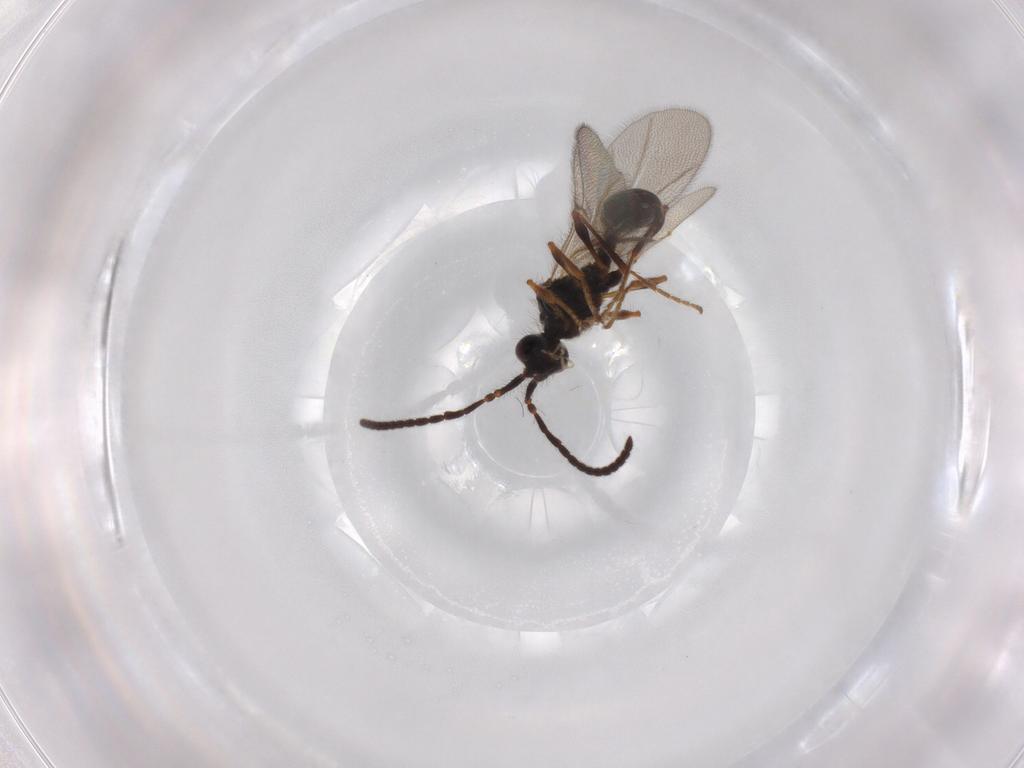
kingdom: Animalia
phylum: Arthropoda
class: Insecta
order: Hymenoptera
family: Diapriidae
